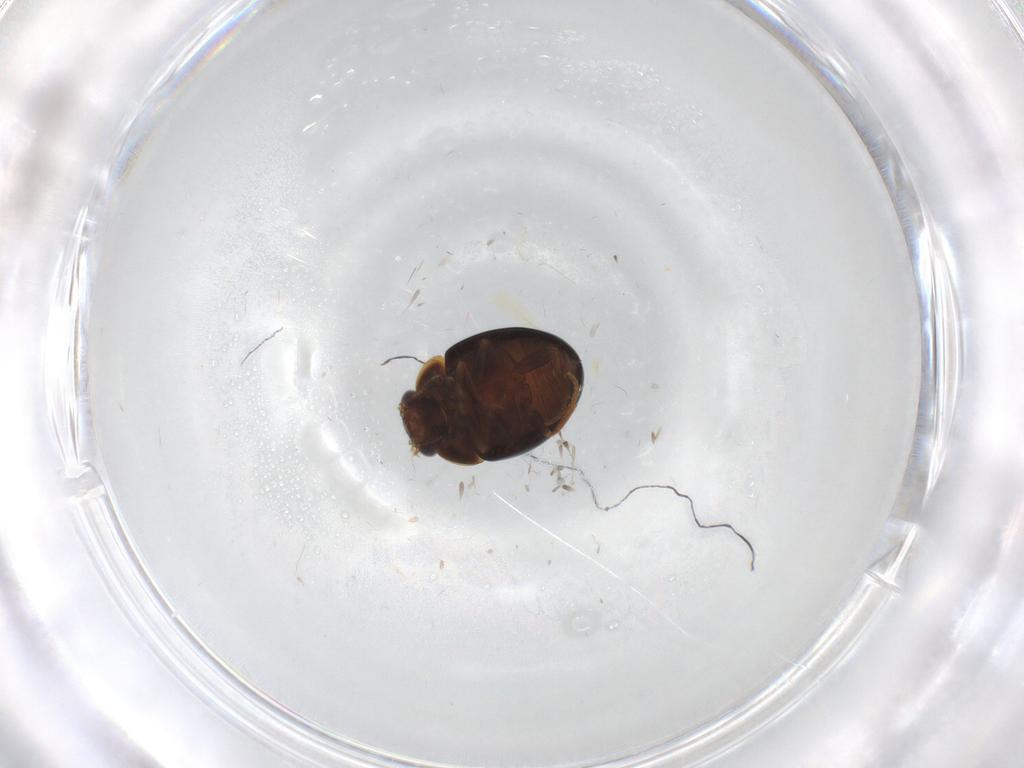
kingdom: Animalia
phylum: Arthropoda
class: Insecta
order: Coleoptera
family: Leiodidae
